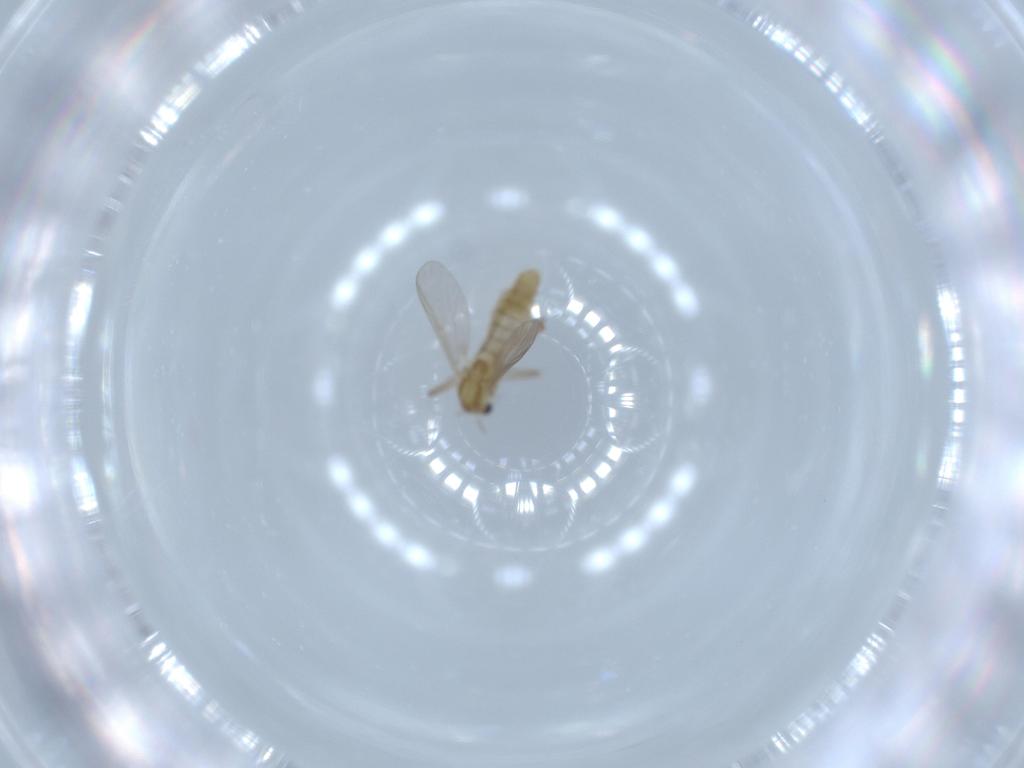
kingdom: Animalia
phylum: Arthropoda
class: Insecta
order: Diptera
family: Chironomidae
